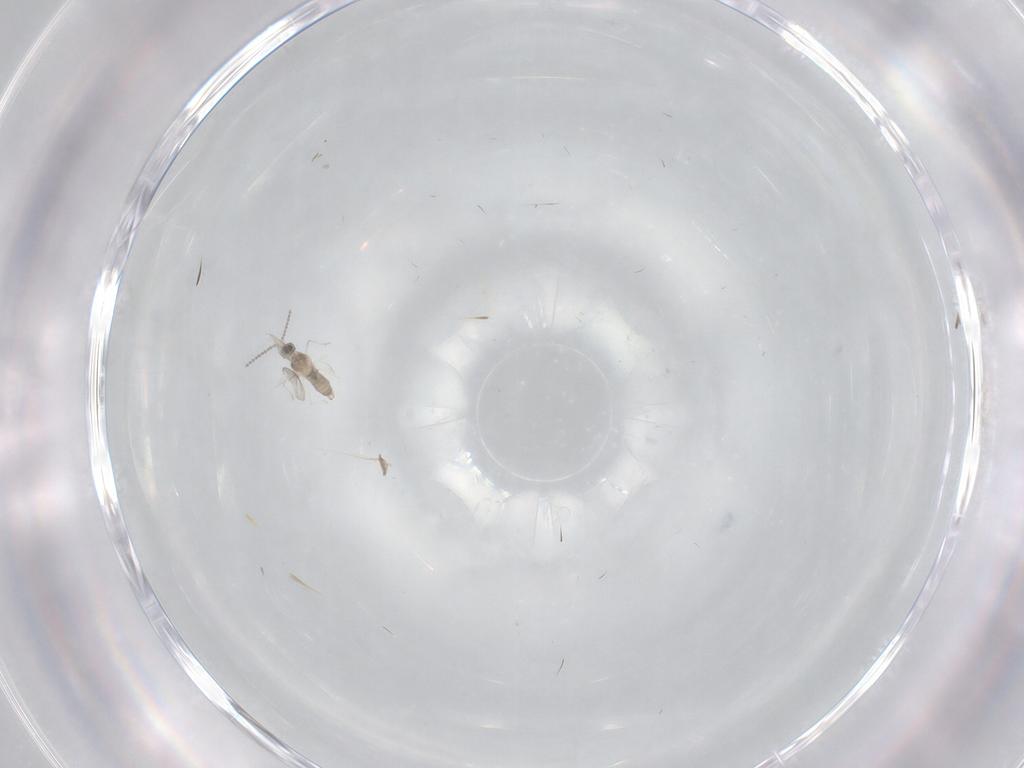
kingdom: Animalia
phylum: Arthropoda
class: Insecta
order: Diptera
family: Cecidomyiidae
